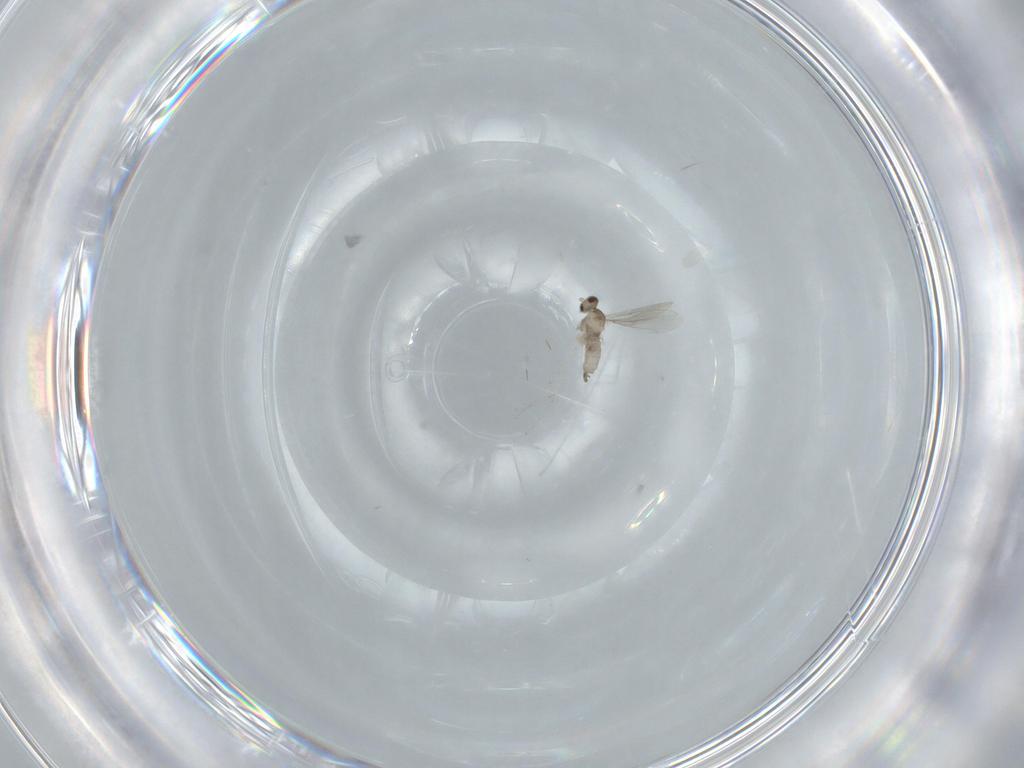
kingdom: Animalia
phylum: Arthropoda
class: Insecta
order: Diptera
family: Cecidomyiidae
